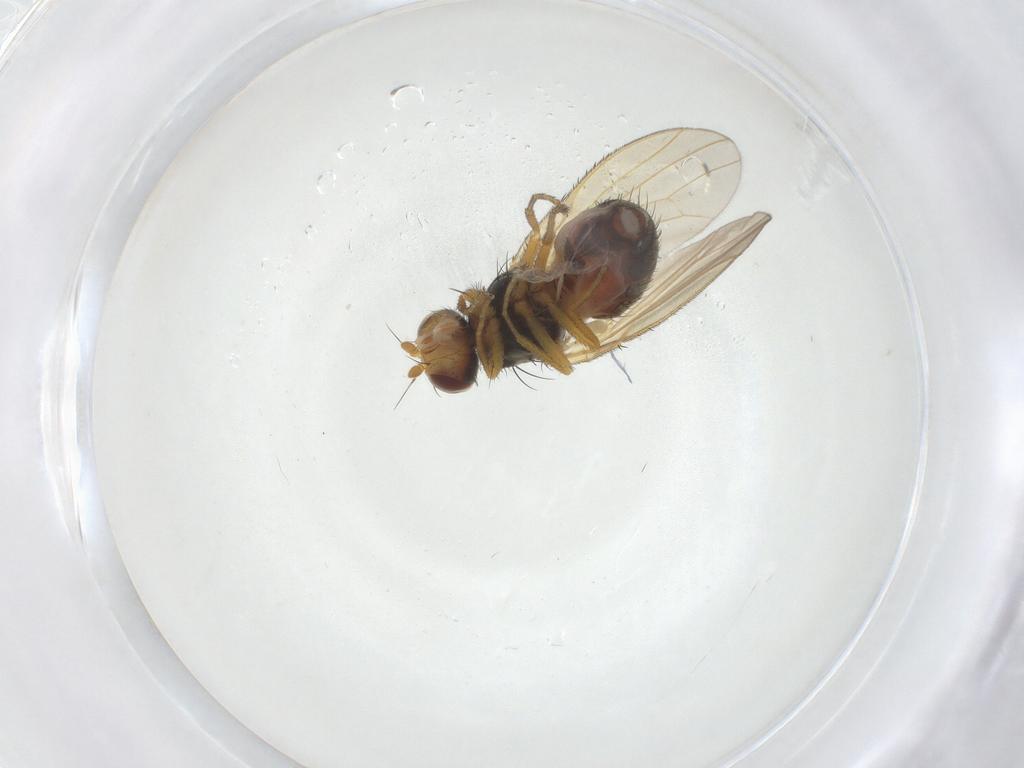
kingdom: Animalia
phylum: Arthropoda
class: Insecta
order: Diptera
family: Heleomyzidae
